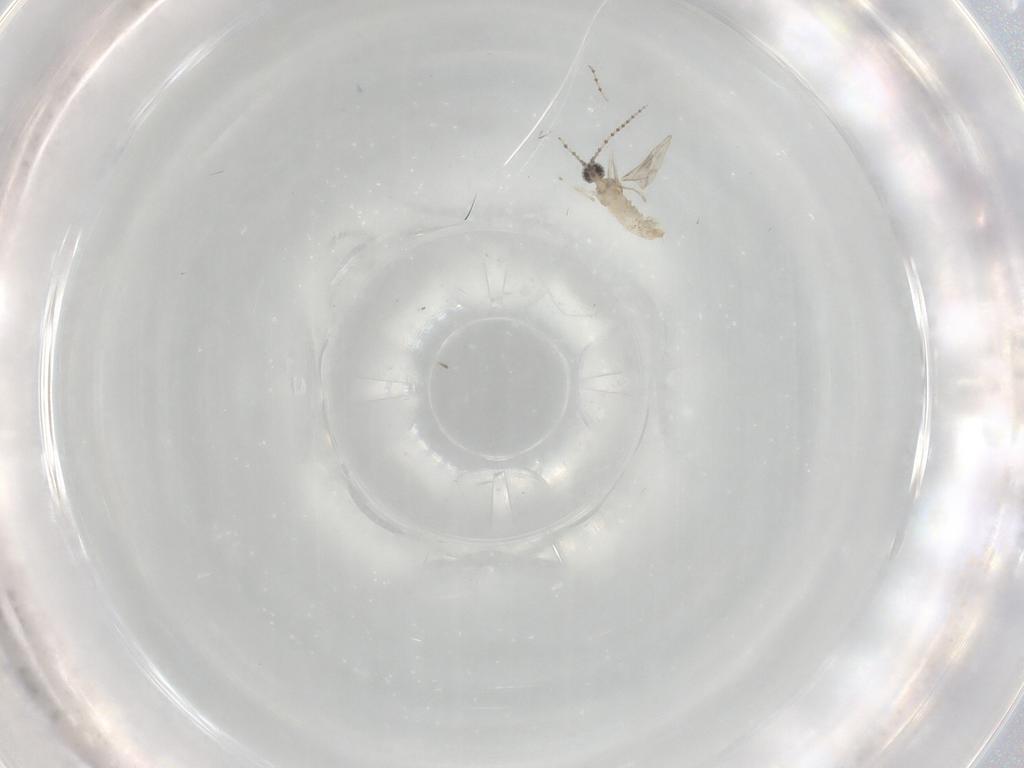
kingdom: Animalia
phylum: Arthropoda
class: Insecta
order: Diptera
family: Cecidomyiidae
